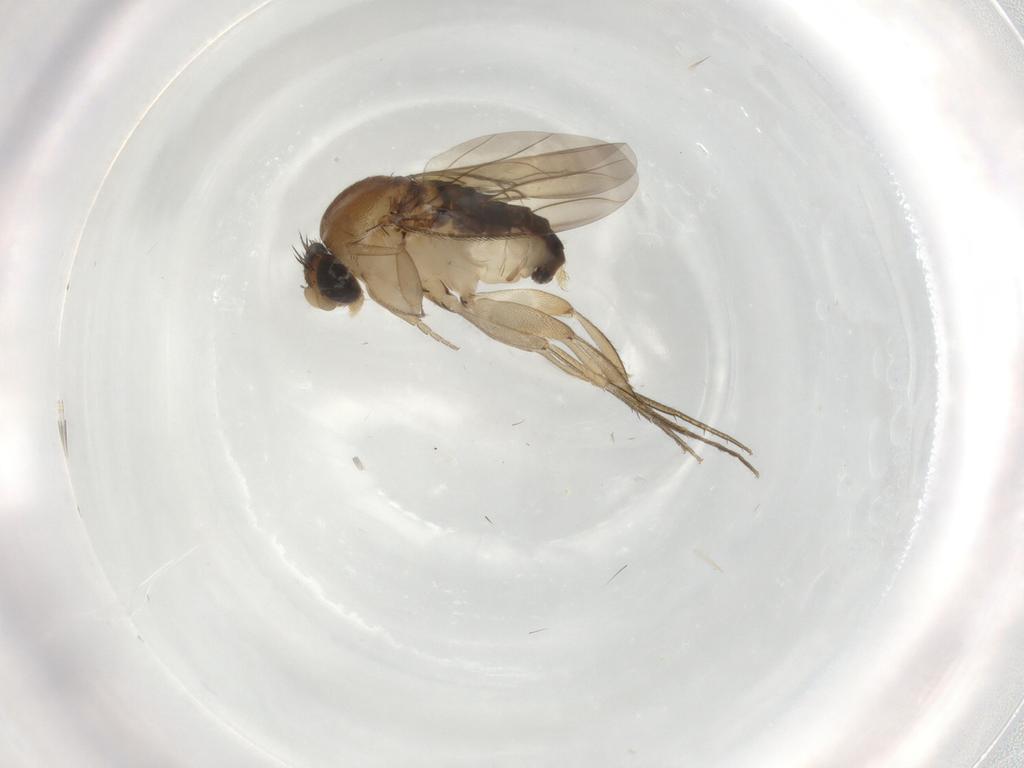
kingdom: Animalia
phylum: Arthropoda
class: Insecta
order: Diptera
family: Phoridae
